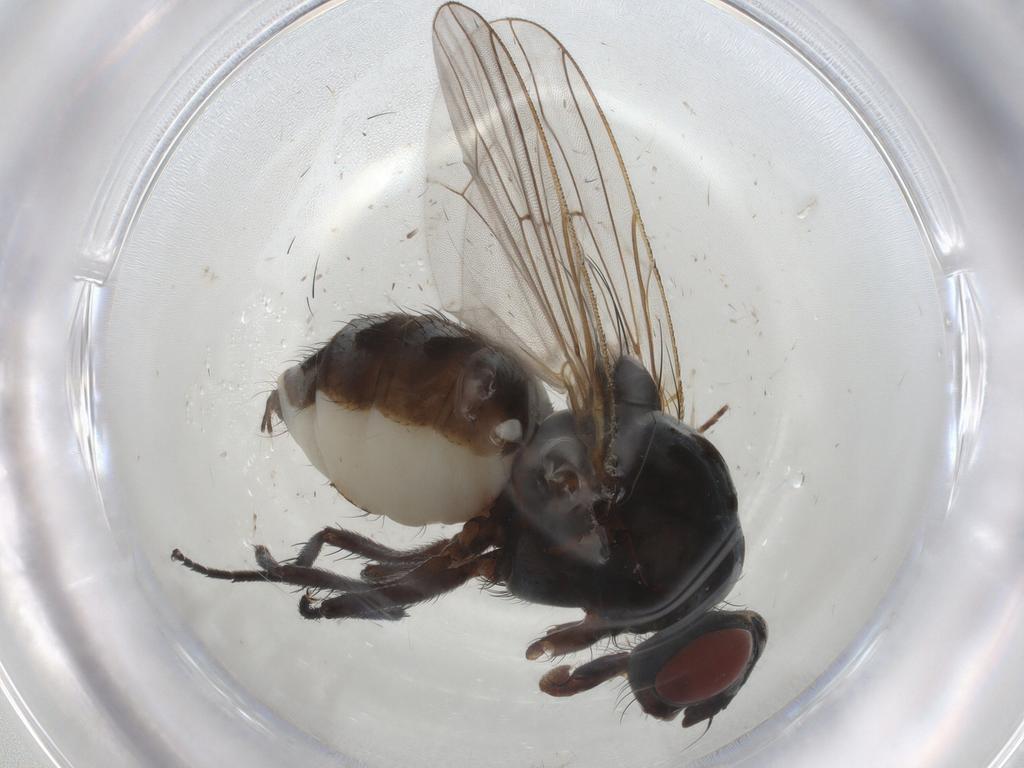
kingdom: Animalia
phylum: Arthropoda
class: Insecta
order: Diptera
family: Anthomyiidae
